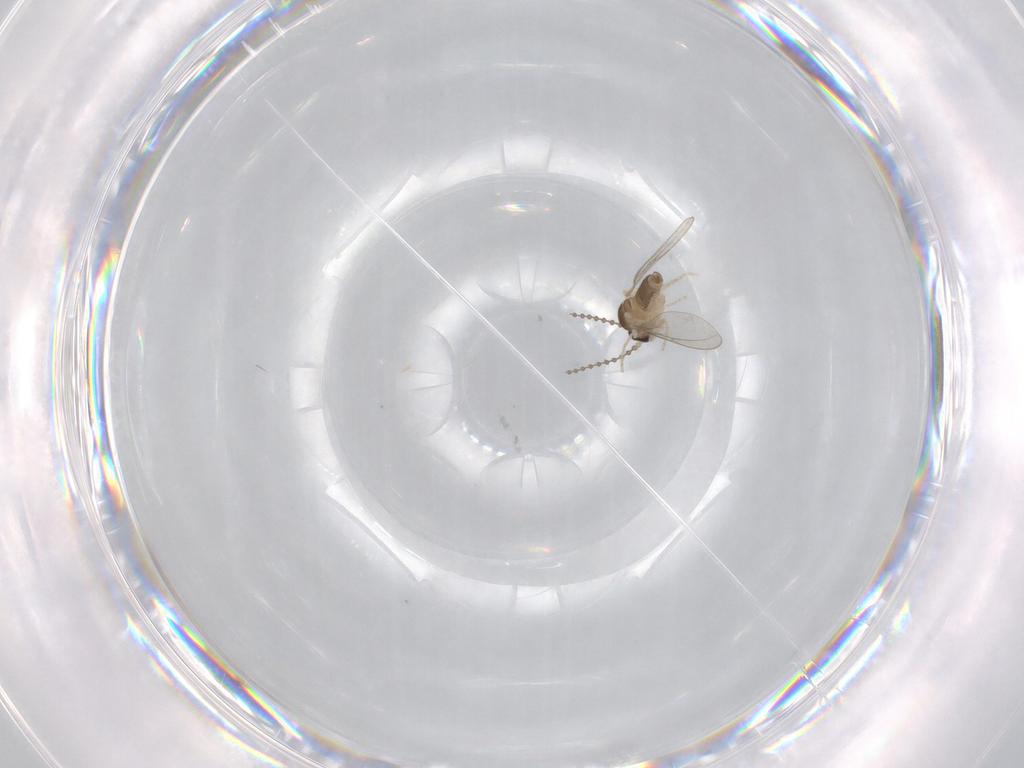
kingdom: Animalia
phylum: Arthropoda
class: Insecta
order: Diptera
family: Cecidomyiidae
